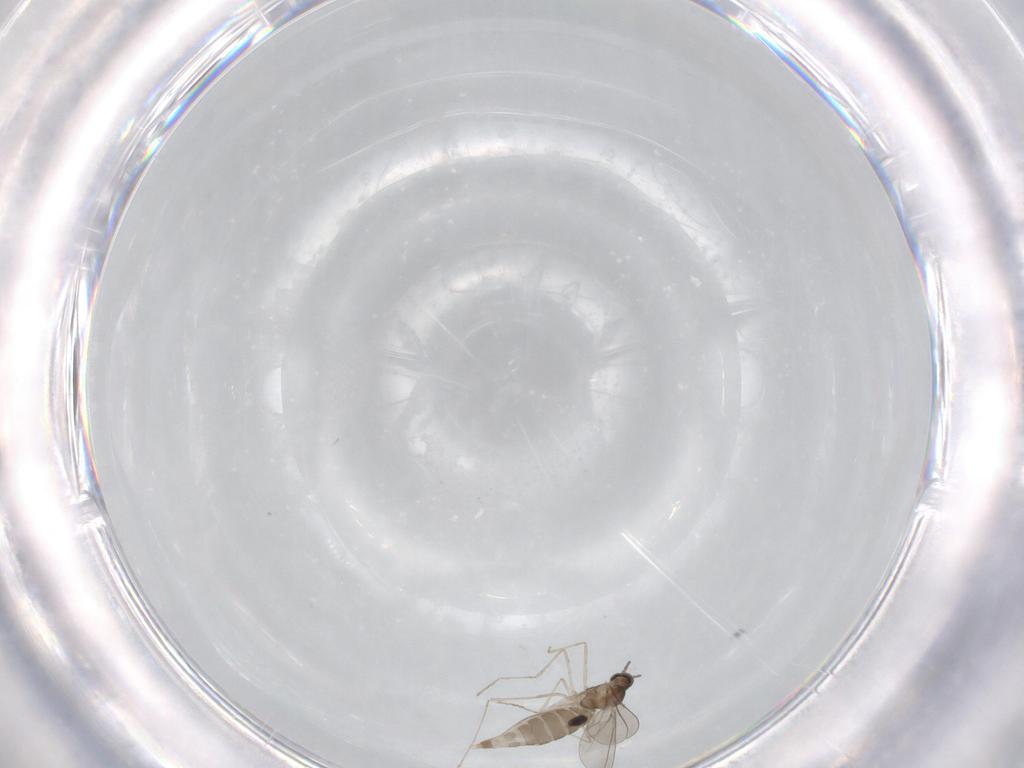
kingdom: Animalia
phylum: Arthropoda
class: Insecta
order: Diptera
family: Cecidomyiidae
